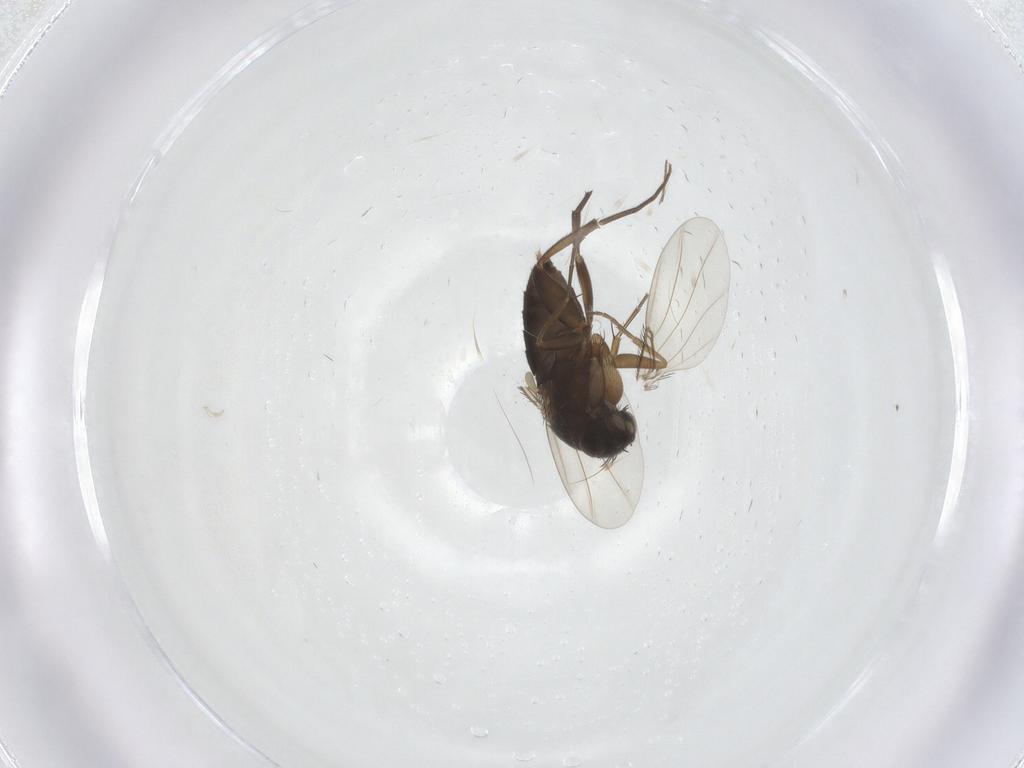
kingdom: Animalia
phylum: Arthropoda
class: Insecta
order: Diptera
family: Phoridae
